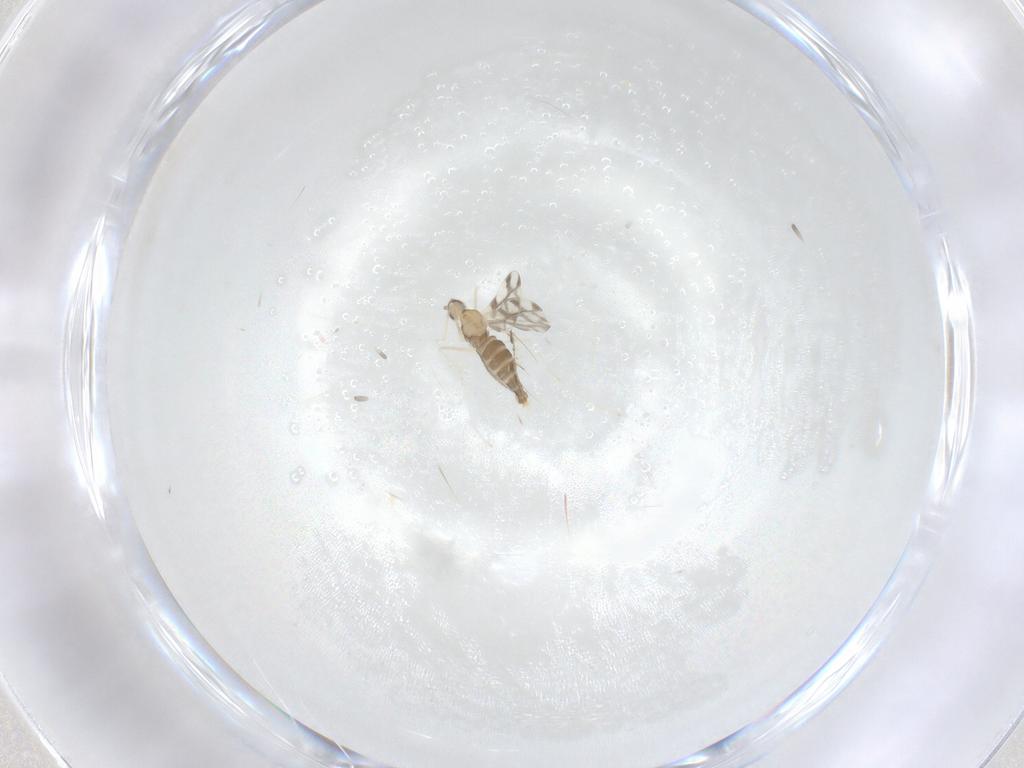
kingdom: Animalia
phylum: Arthropoda
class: Insecta
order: Diptera
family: Cecidomyiidae
